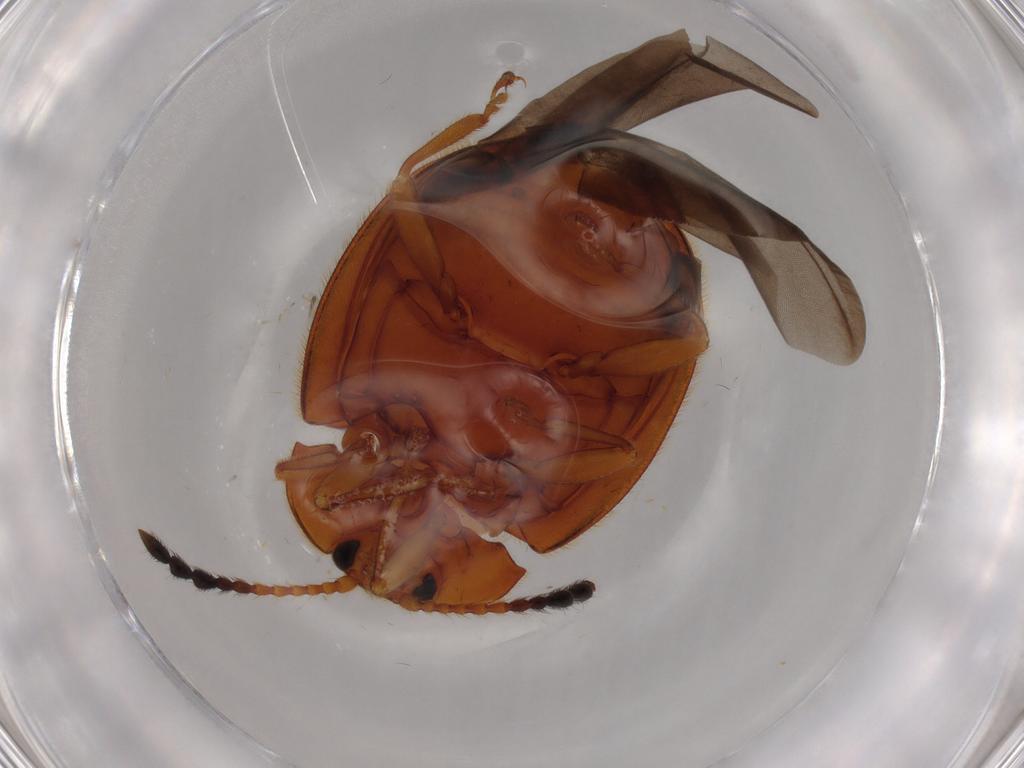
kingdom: Animalia
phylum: Arthropoda
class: Insecta
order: Coleoptera
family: Endomychidae
